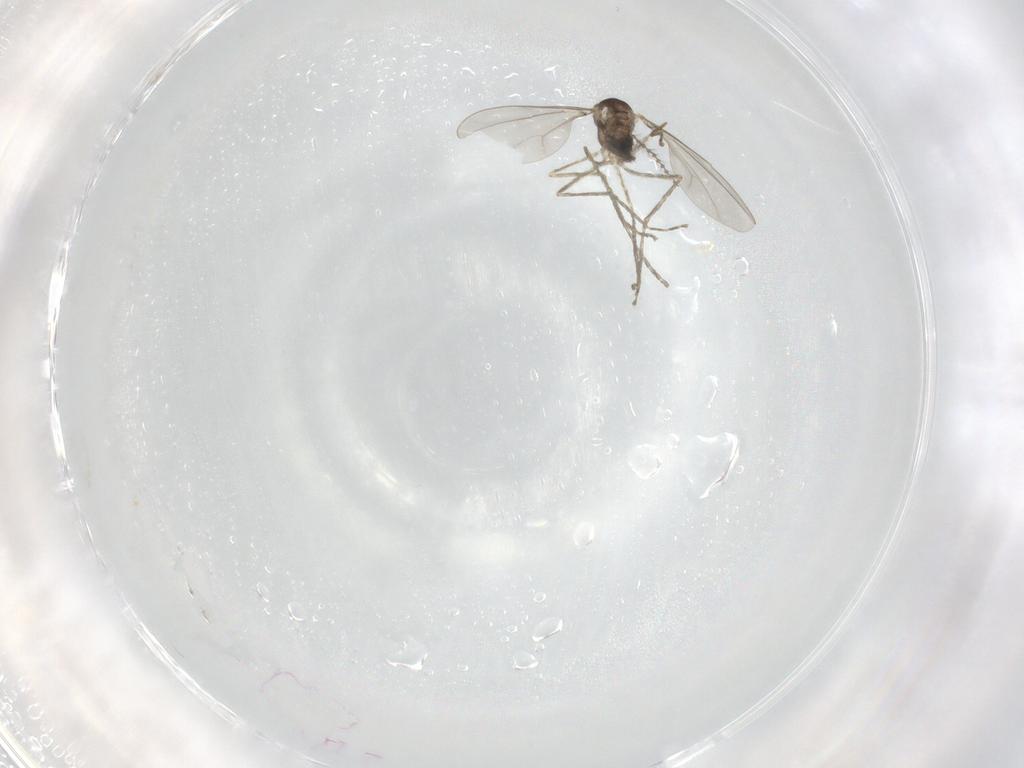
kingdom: Animalia
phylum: Arthropoda
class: Insecta
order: Diptera
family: Cecidomyiidae
